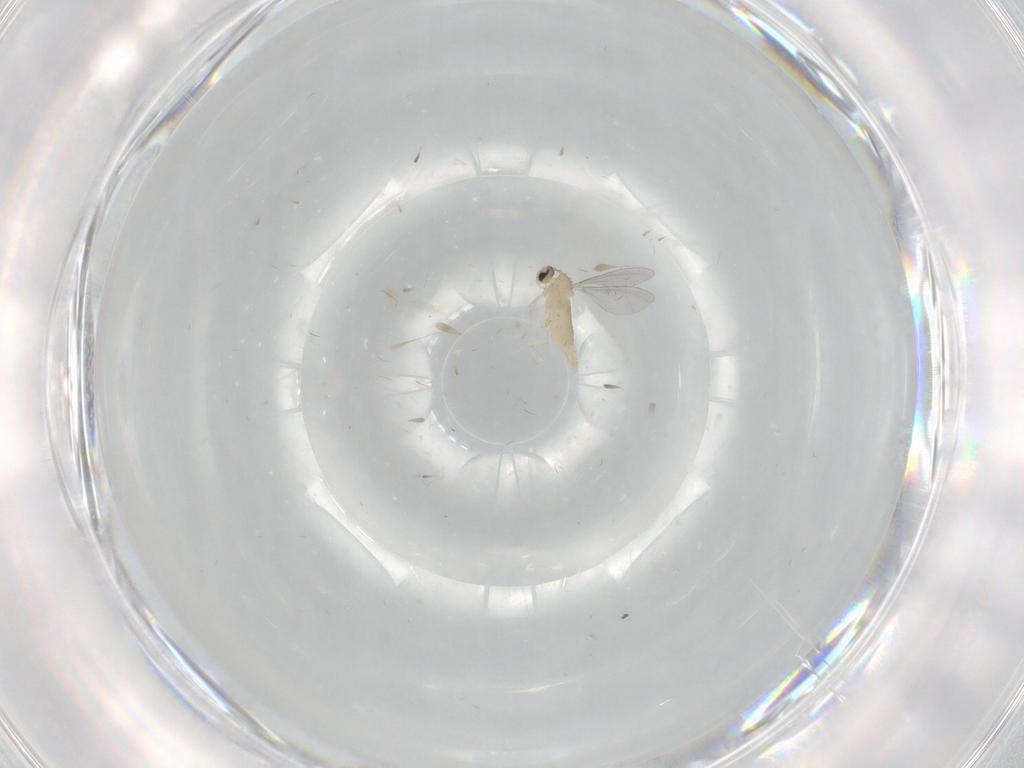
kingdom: Animalia
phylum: Arthropoda
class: Insecta
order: Diptera
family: Cecidomyiidae
